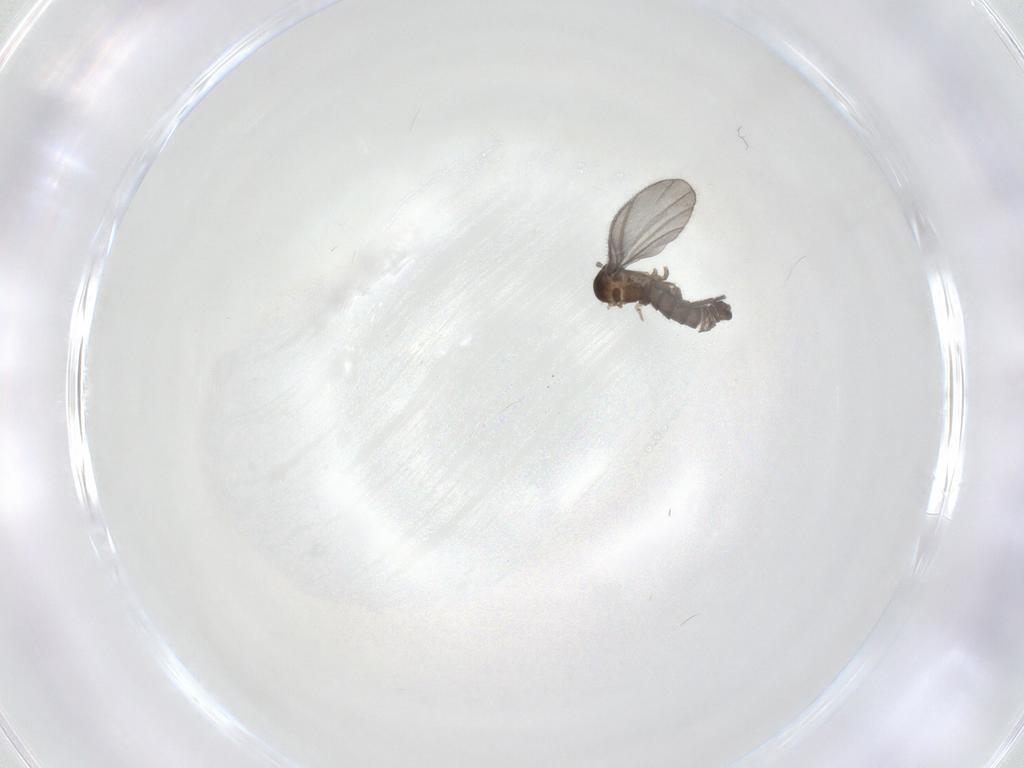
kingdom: Animalia
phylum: Arthropoda
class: Insecta
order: Diptera
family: Sciaridae
